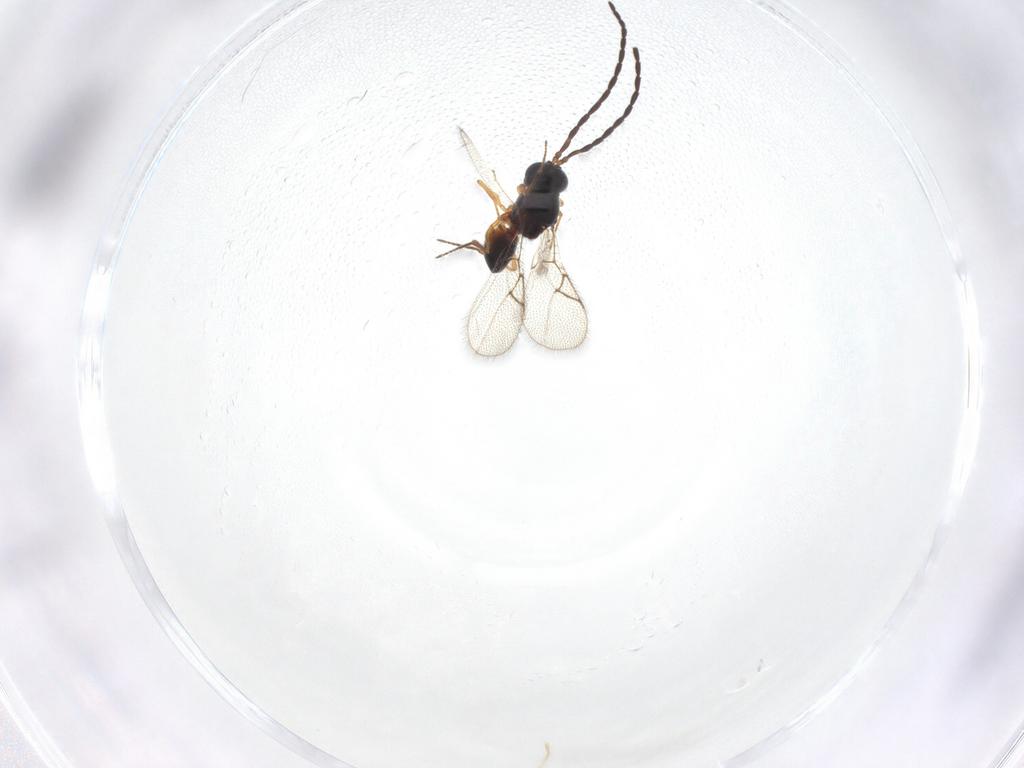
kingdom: Animalia
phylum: Arthropoda
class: Insecta
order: Hymenoptera
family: Figitidae
